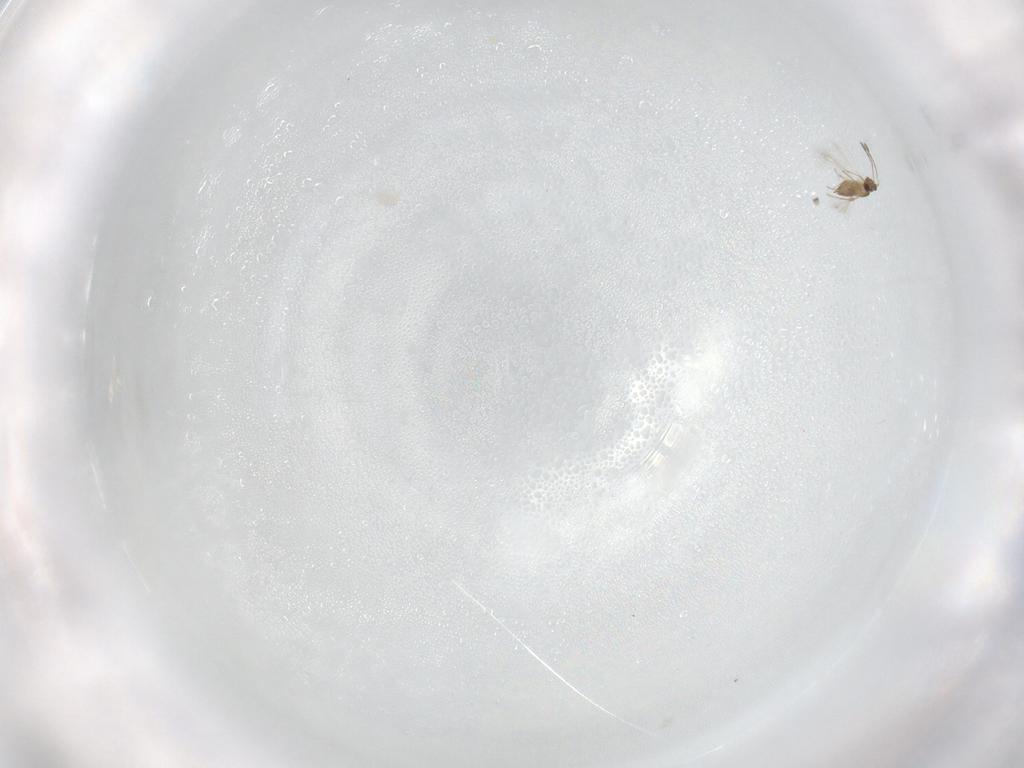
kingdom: Animalia
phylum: Arthropoda
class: Insecta
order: Hymenoptera
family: Mymaridae
